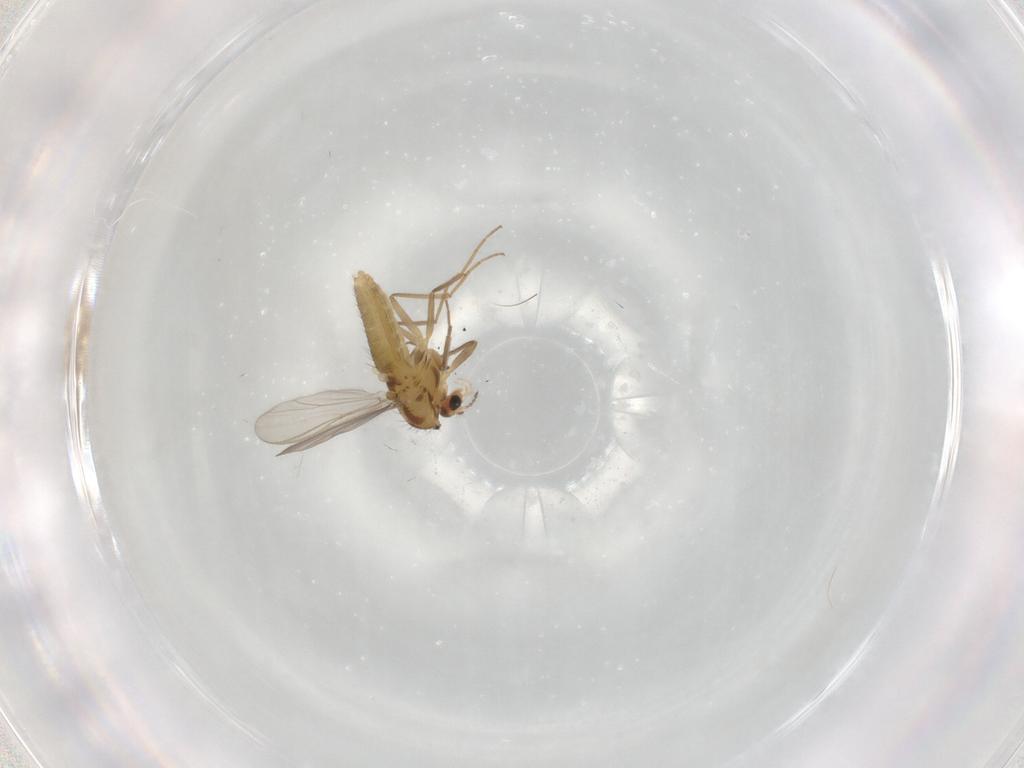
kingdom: Animalia
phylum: Arthropoda
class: Insecta
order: Diptera
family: Chironomidae
